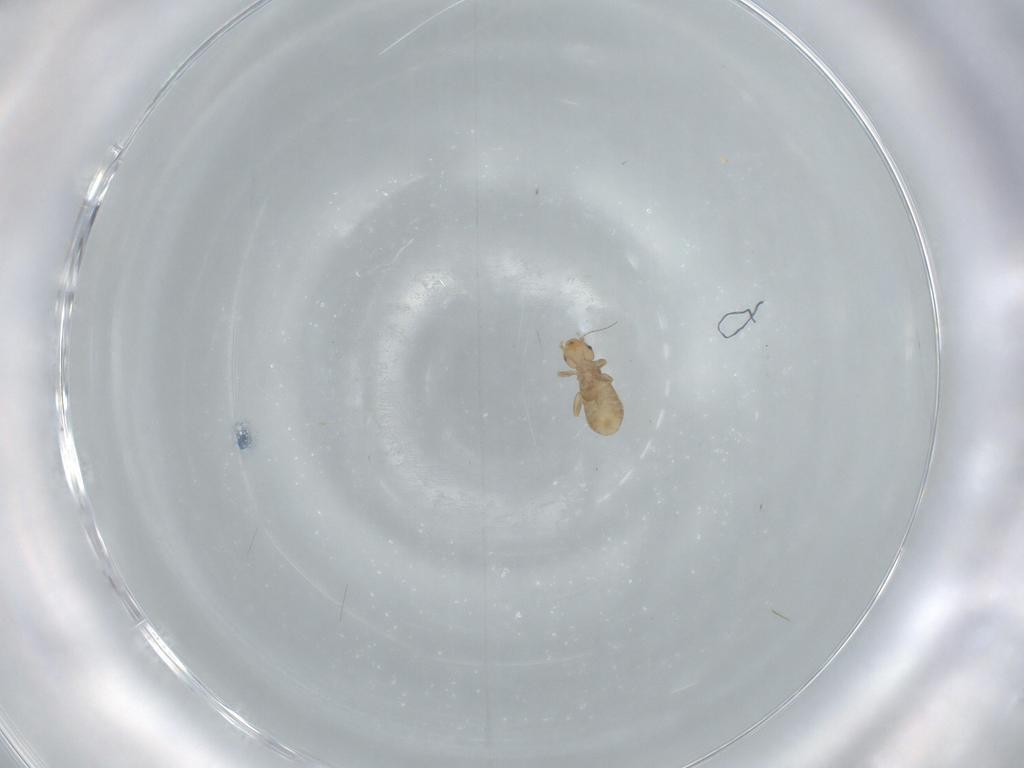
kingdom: Animalia
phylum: Arthropoda
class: Insecta
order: Psocodea
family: Liposcelididae
